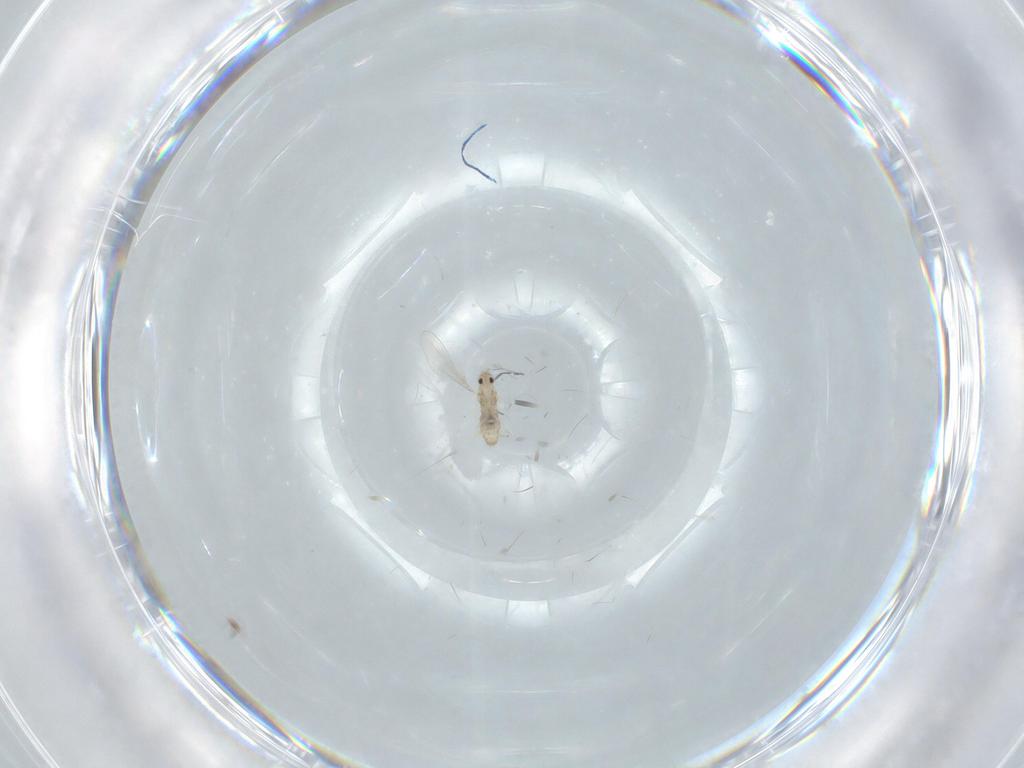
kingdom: Animalia
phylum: Arthropoda
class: Insecta
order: Diptera
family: Cecidomyiidae
